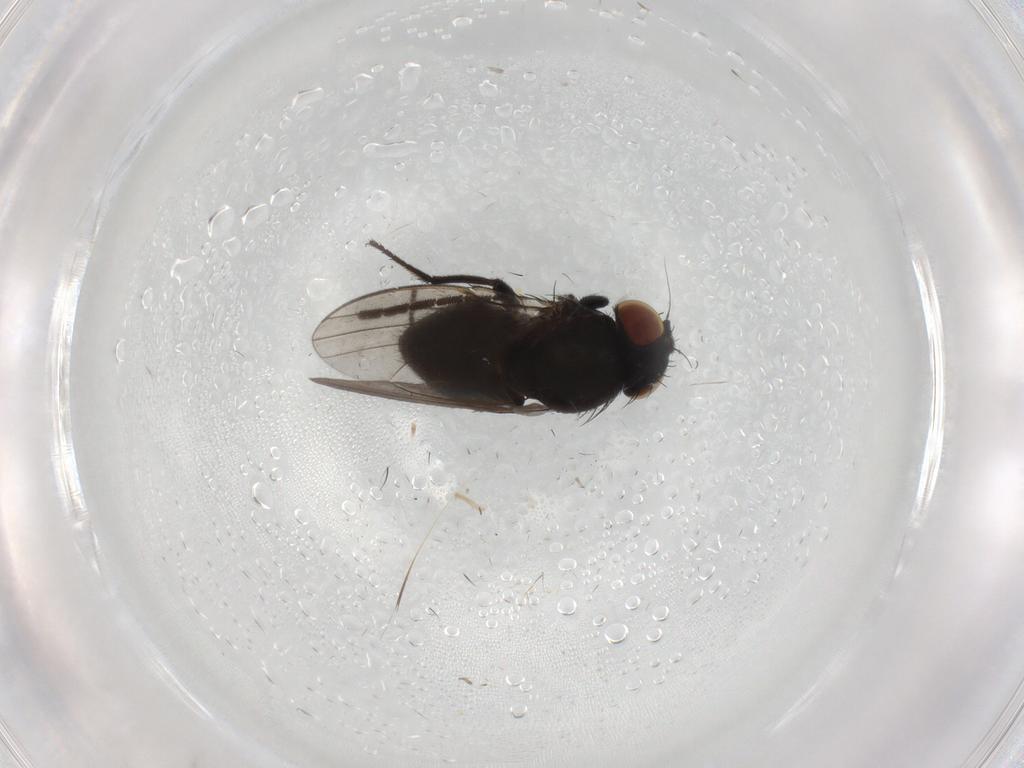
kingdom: Animalia
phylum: Arthropoda
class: Insecta
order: Diptera
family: Milichiidae
